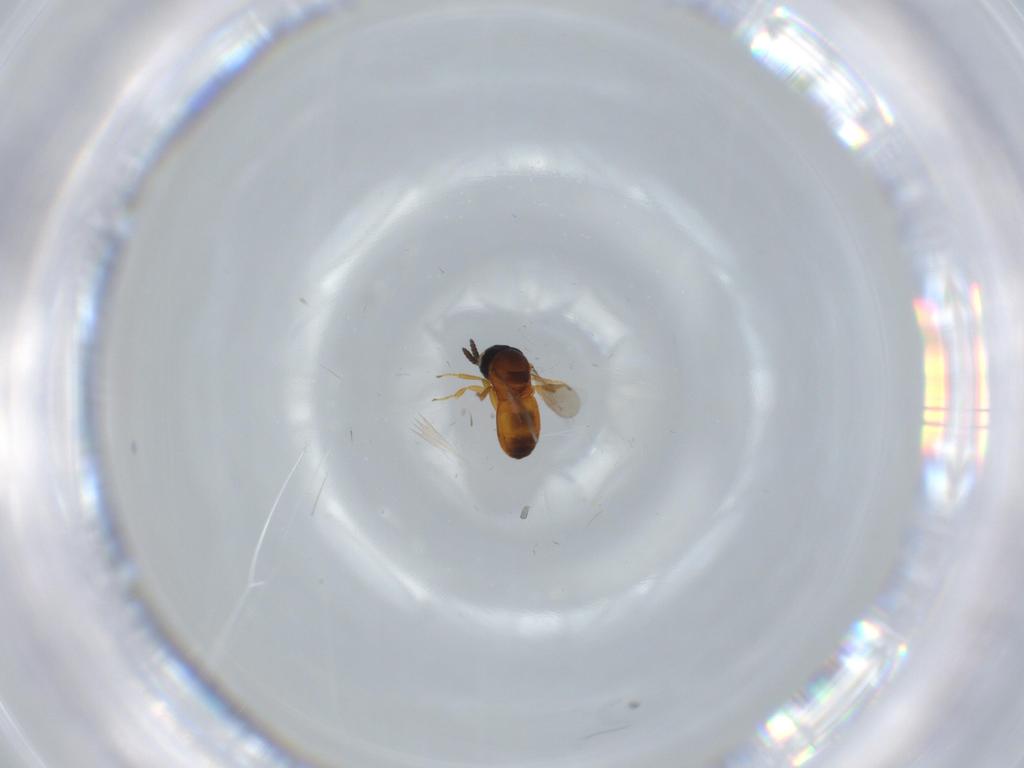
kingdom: Animalia
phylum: Arthropoda
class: Insecta
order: Hymenoptera
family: Scelionidae
